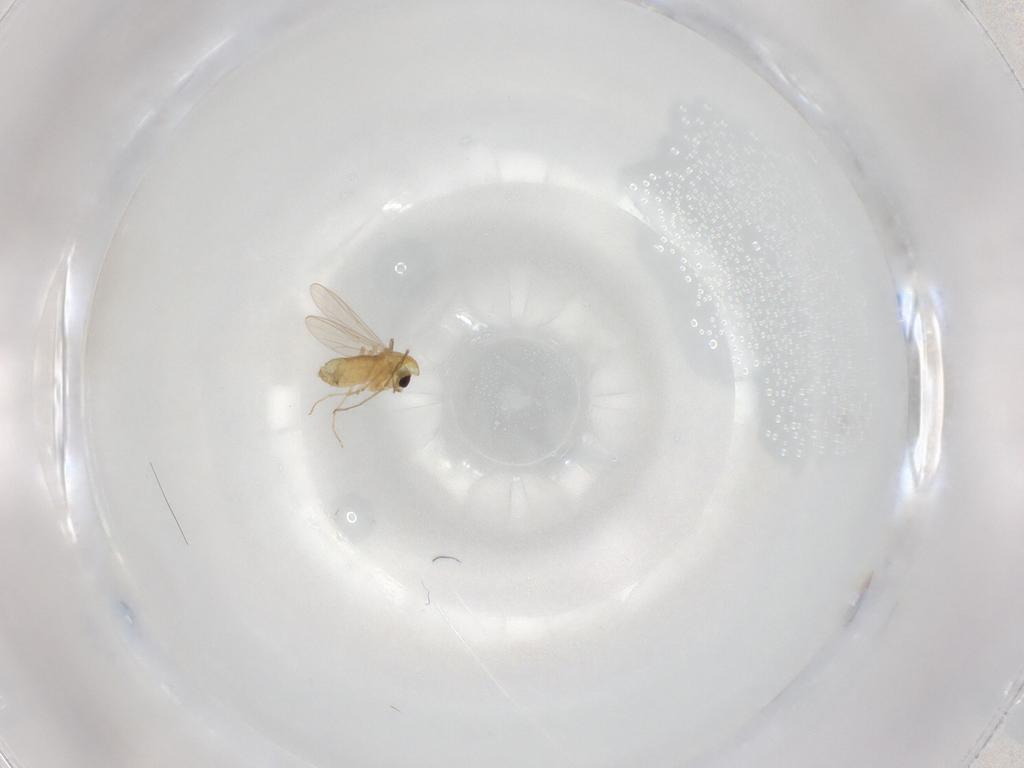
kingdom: Animalia
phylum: Arthropoda
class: Insecta
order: Diptera
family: Chironomidae
